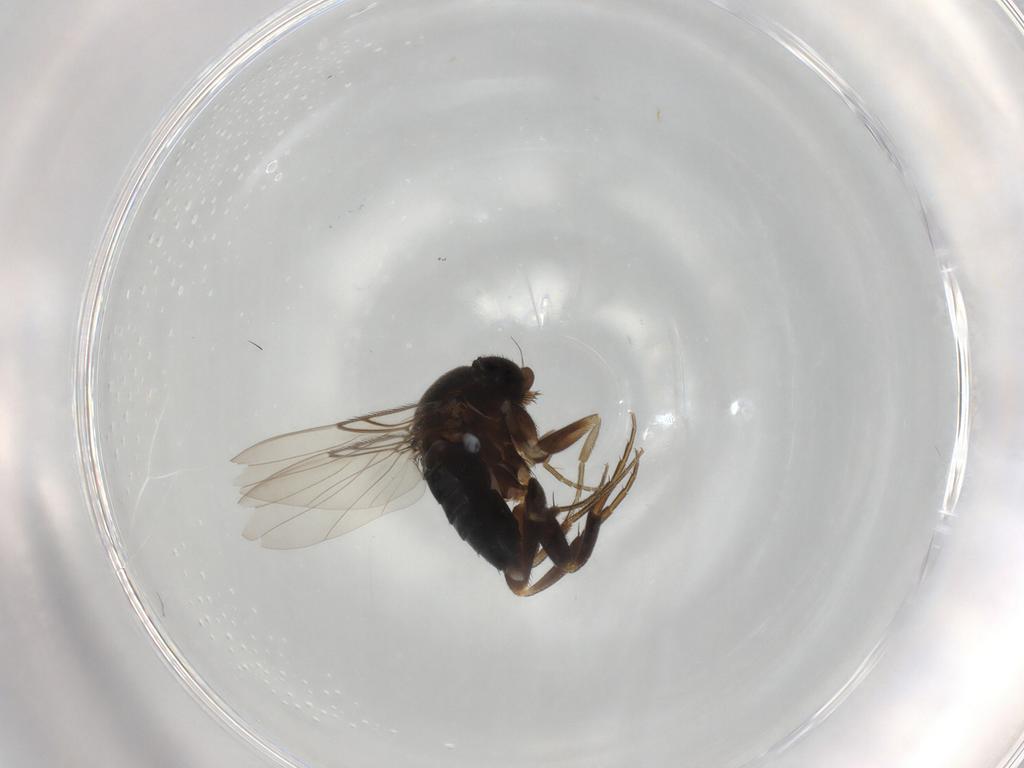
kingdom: Animalia
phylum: Arthropoda
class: Insecta
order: Diptera
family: Phoridae
